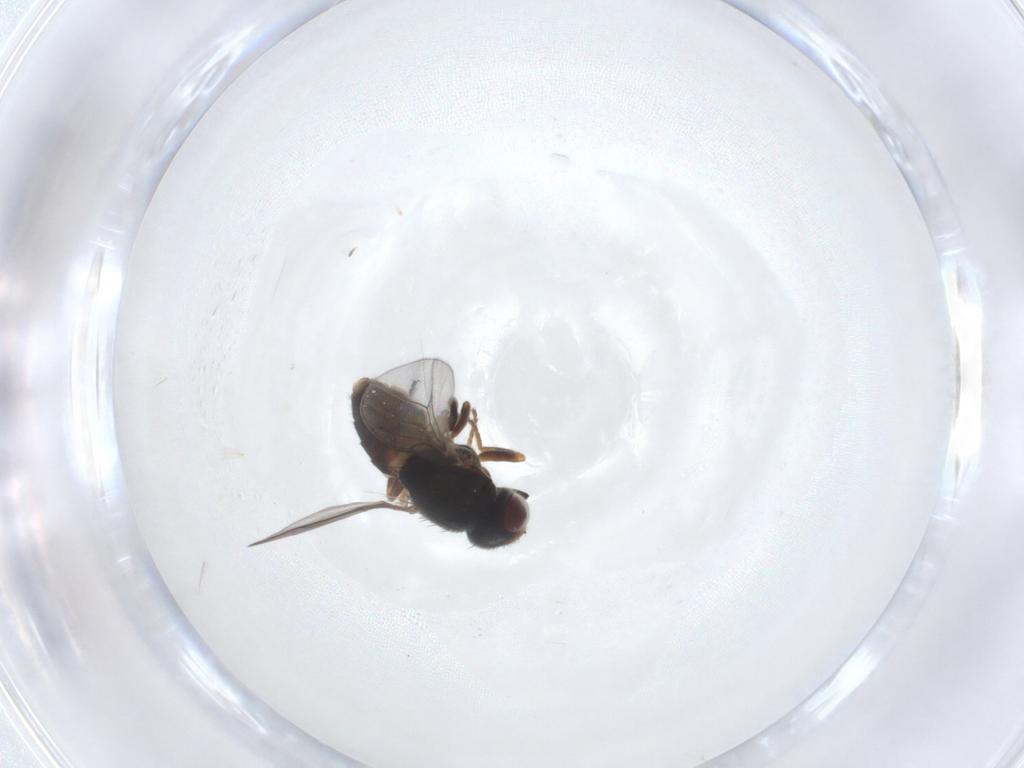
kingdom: Animalia
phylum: Arthropoda
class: Insecta
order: Diptera
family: Chloropidae
